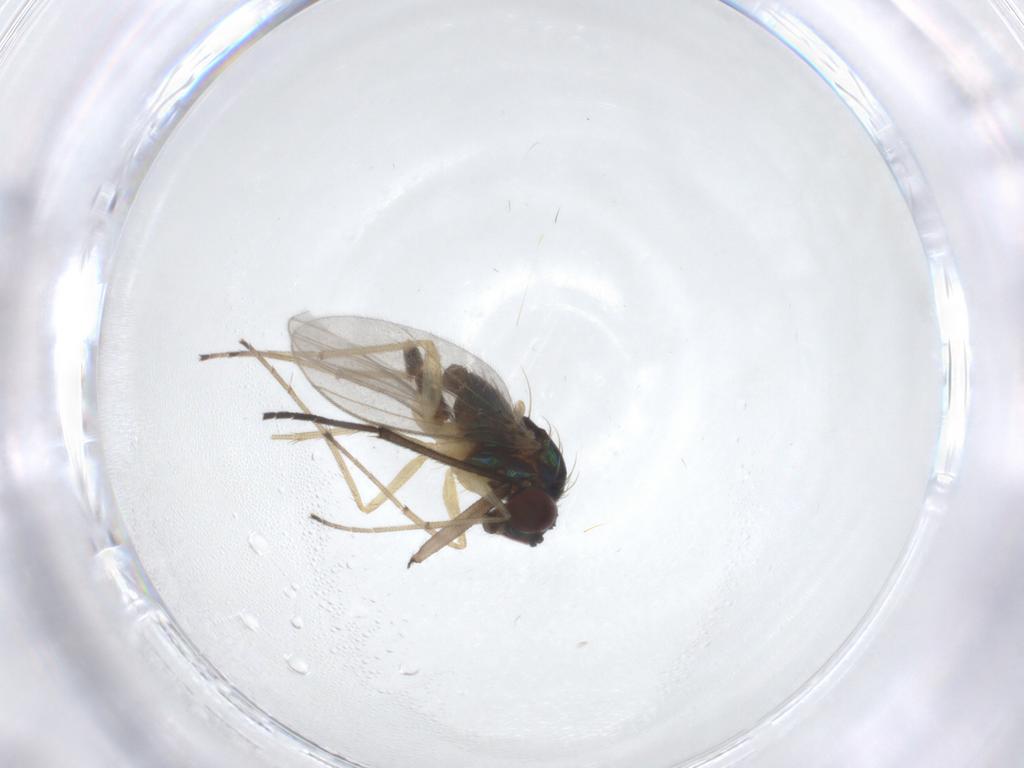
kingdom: Animalia
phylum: Arthropoda
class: Insecta
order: Diptera
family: Dolichopodidae
